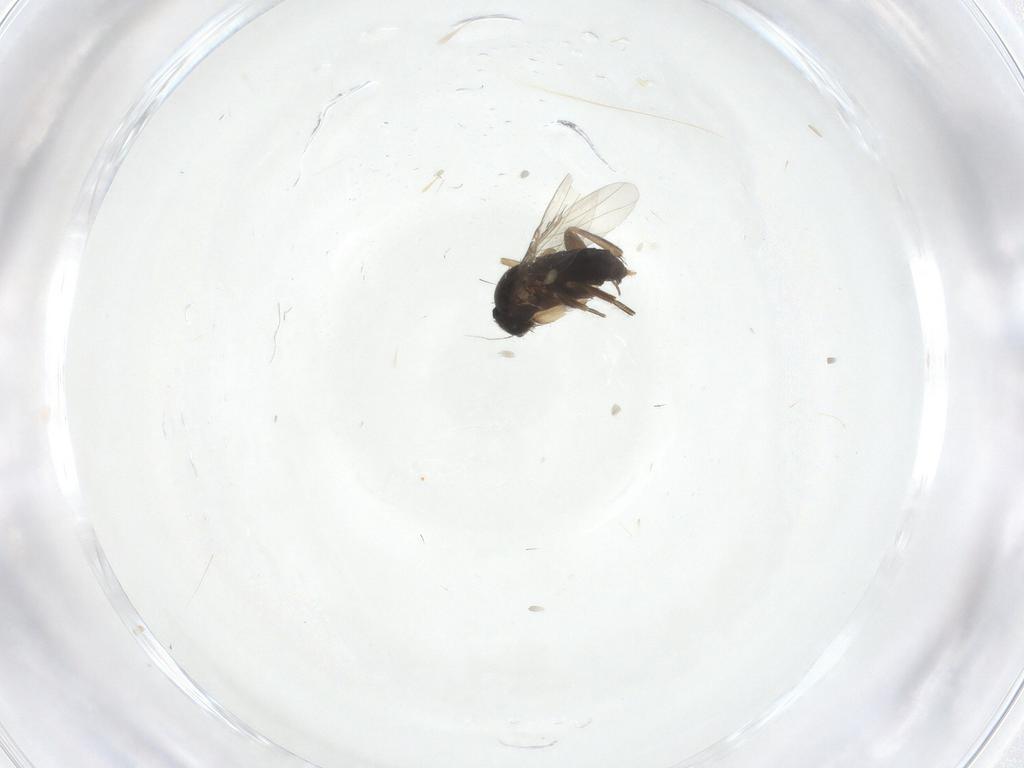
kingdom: Animalia
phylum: Arthropoda
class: Insecta
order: Diptera
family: Phoridae
